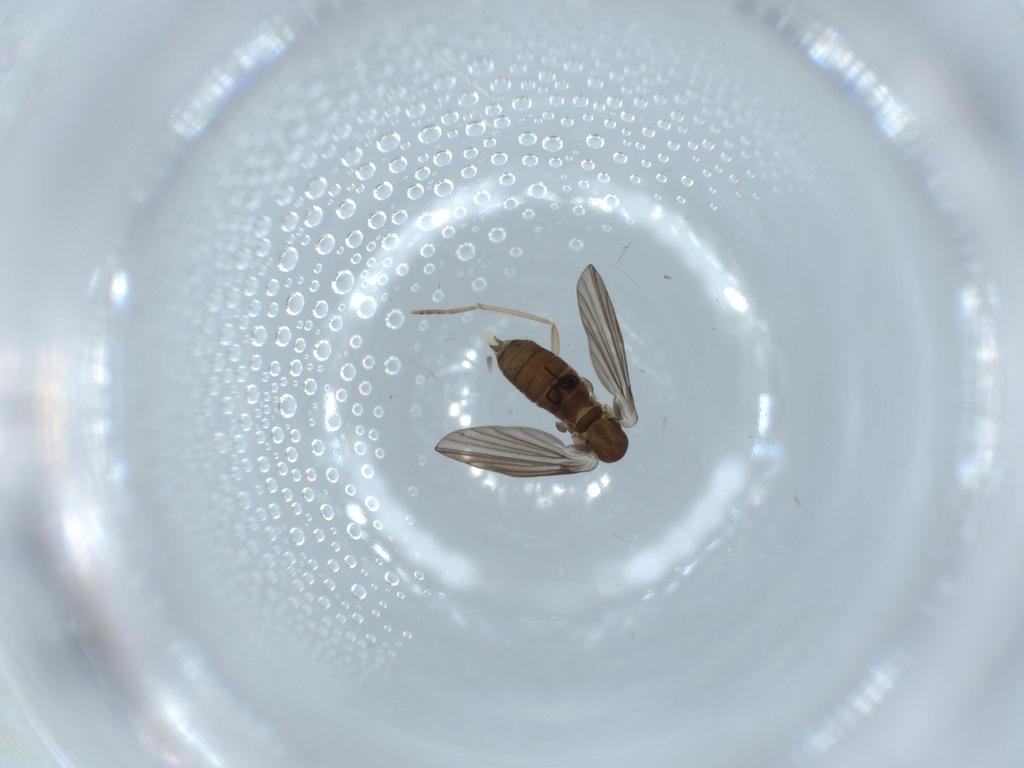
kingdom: Animalia
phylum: Arthropoda
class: Insecta
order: Diptera
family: Psychodidae
